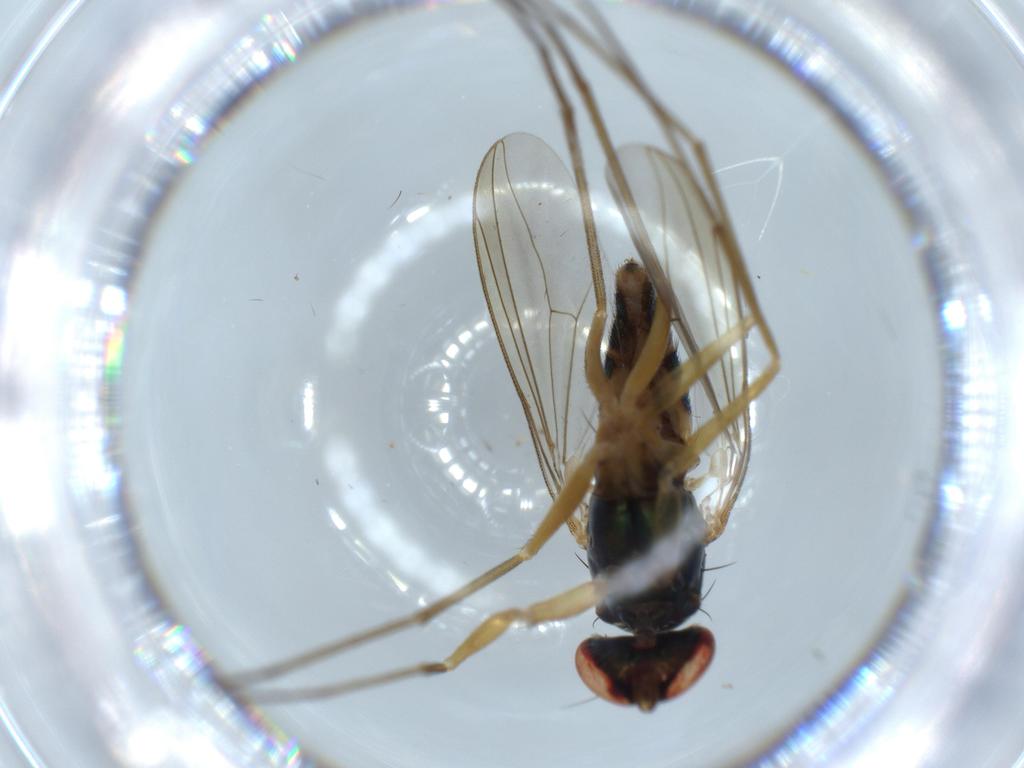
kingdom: Animalia
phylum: Arthropoda
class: Insecta
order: Diptera
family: Dolichopodidae
